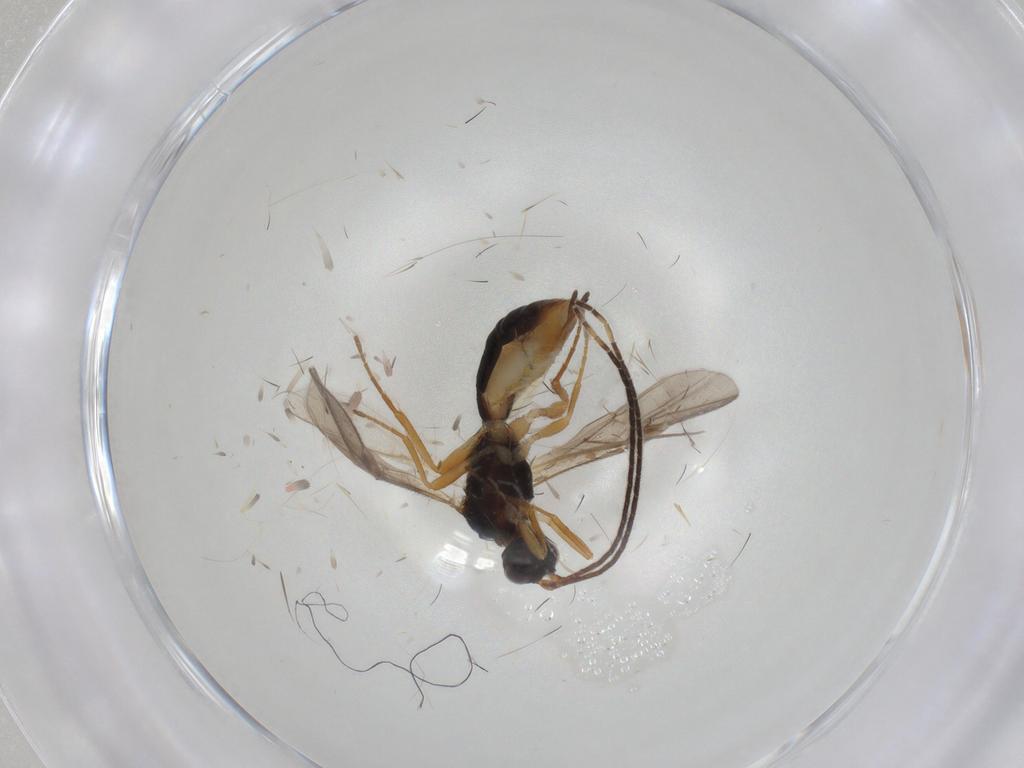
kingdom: Animalia
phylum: Arthropoda
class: Insecta
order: Hymenoptera
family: Braconidae
